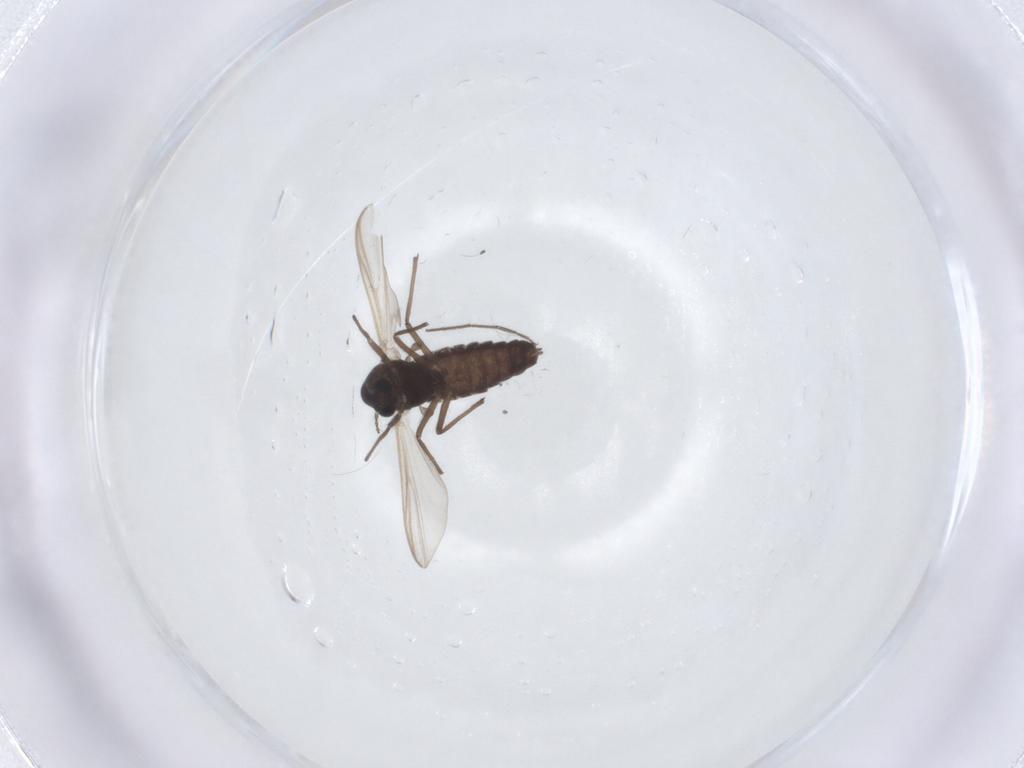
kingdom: Animalia
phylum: Arthropoda
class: Insecta
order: Diptera
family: Chironomidae
